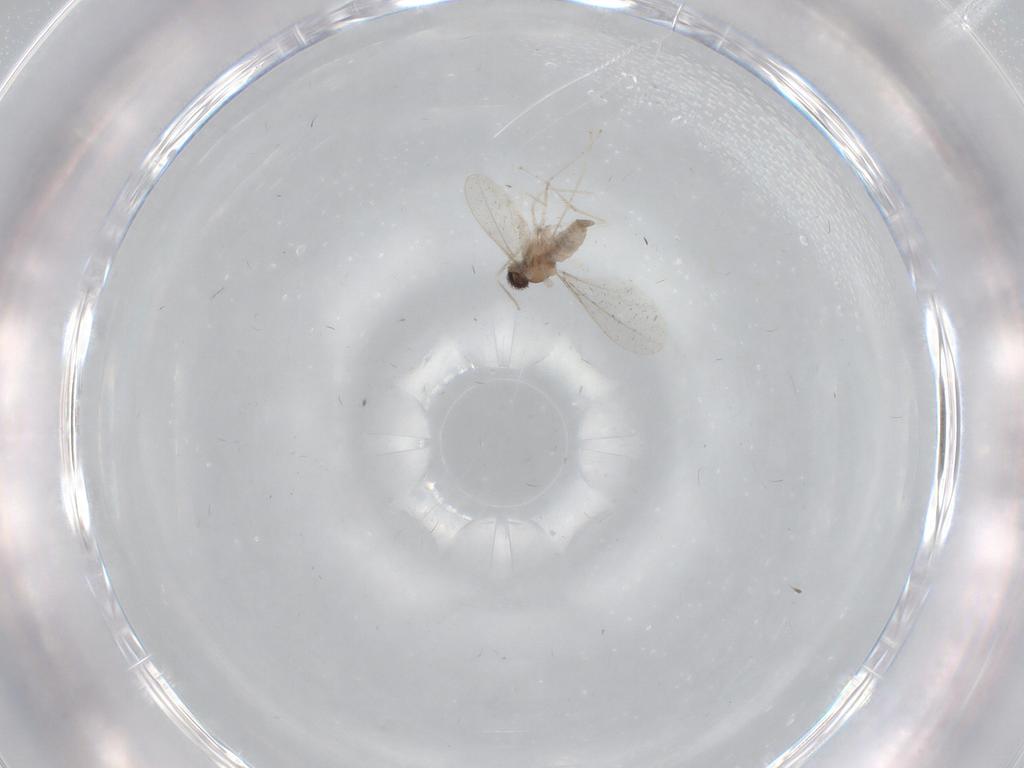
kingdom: Animalia
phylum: Arthropoda
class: Insecta
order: Diptera
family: Cecidomyiidae
